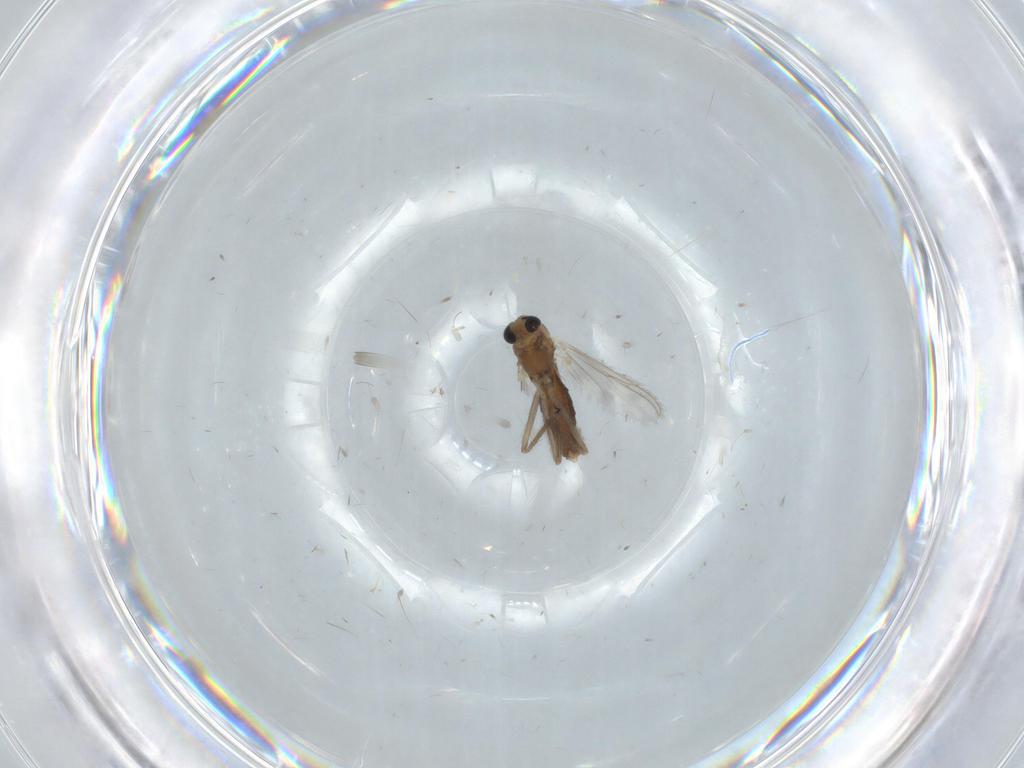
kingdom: Animalia
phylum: Arthropoda
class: Insecta
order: Diptera
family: Chironomidae
